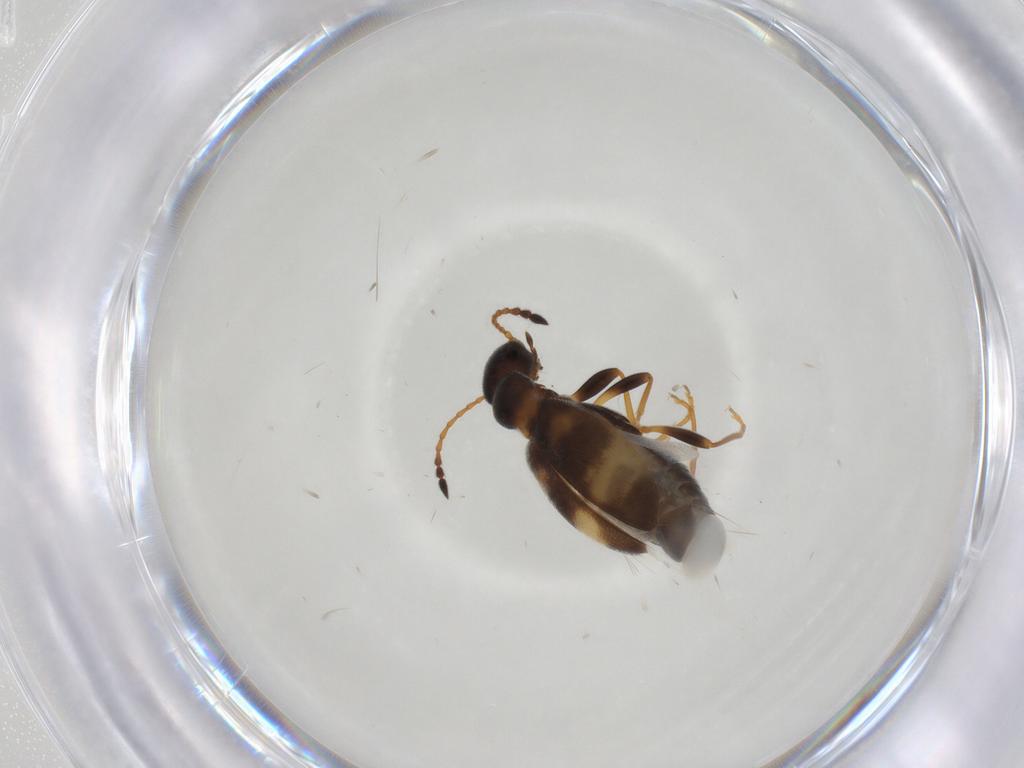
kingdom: Animalia
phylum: Arthropoda
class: Insecta
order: Coleoptera
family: Anthicidae
